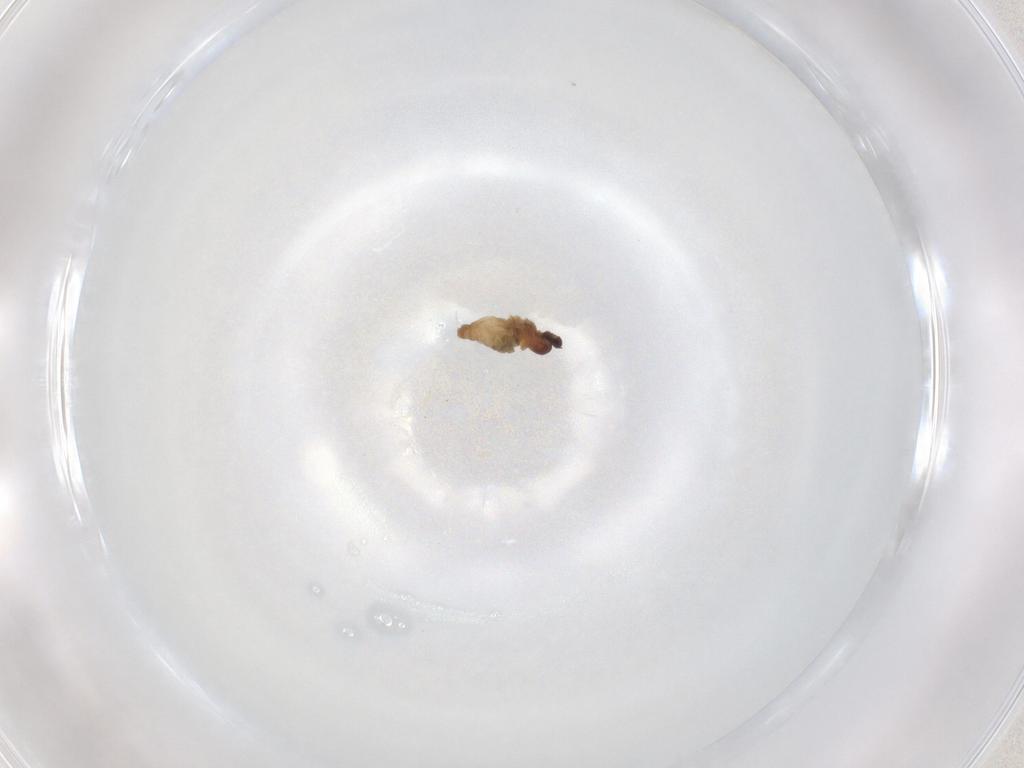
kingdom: Animalia
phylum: Arthropoda
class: Insecta
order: Diptera
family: Cecidomyiidae
